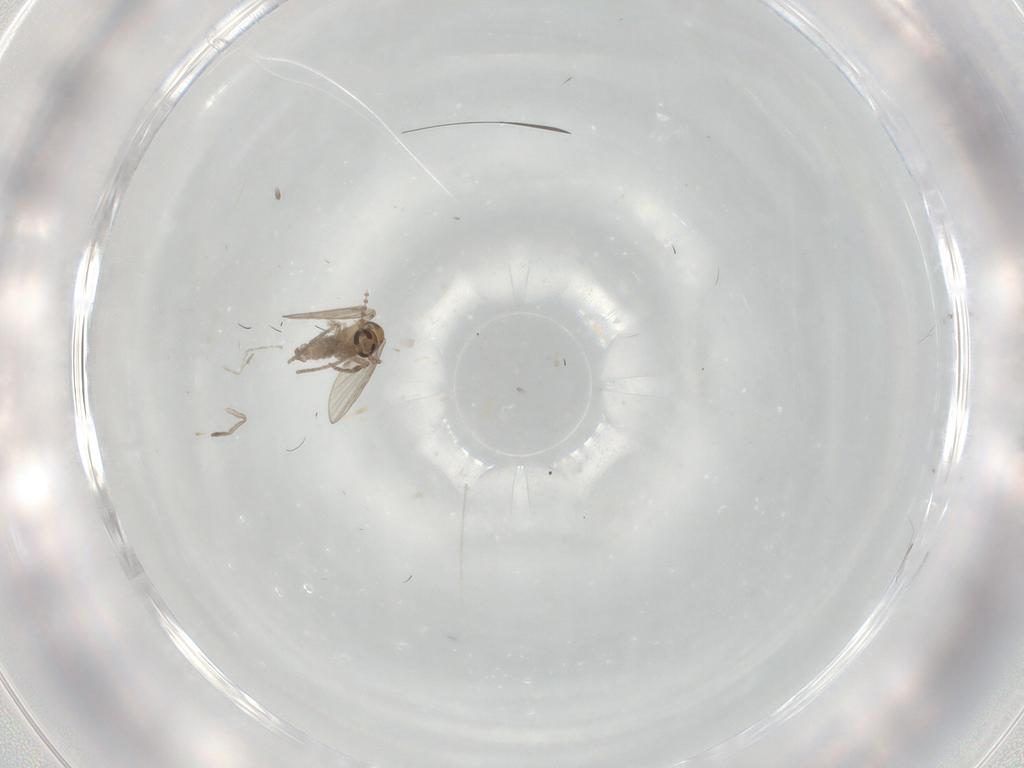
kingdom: Animalia
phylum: Arthropoda
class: Insecta
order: Diptera
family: Psychodidae
